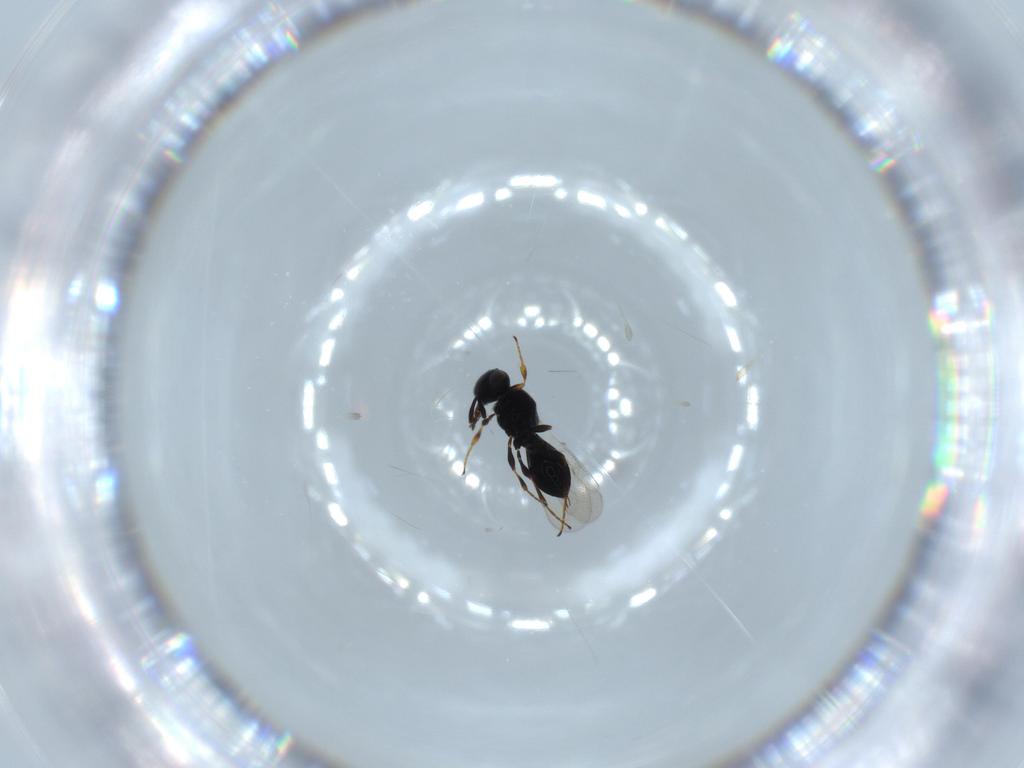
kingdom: Animalia
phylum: Arthropoda
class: Insecta
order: Hymenoptera
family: Platygastridae
